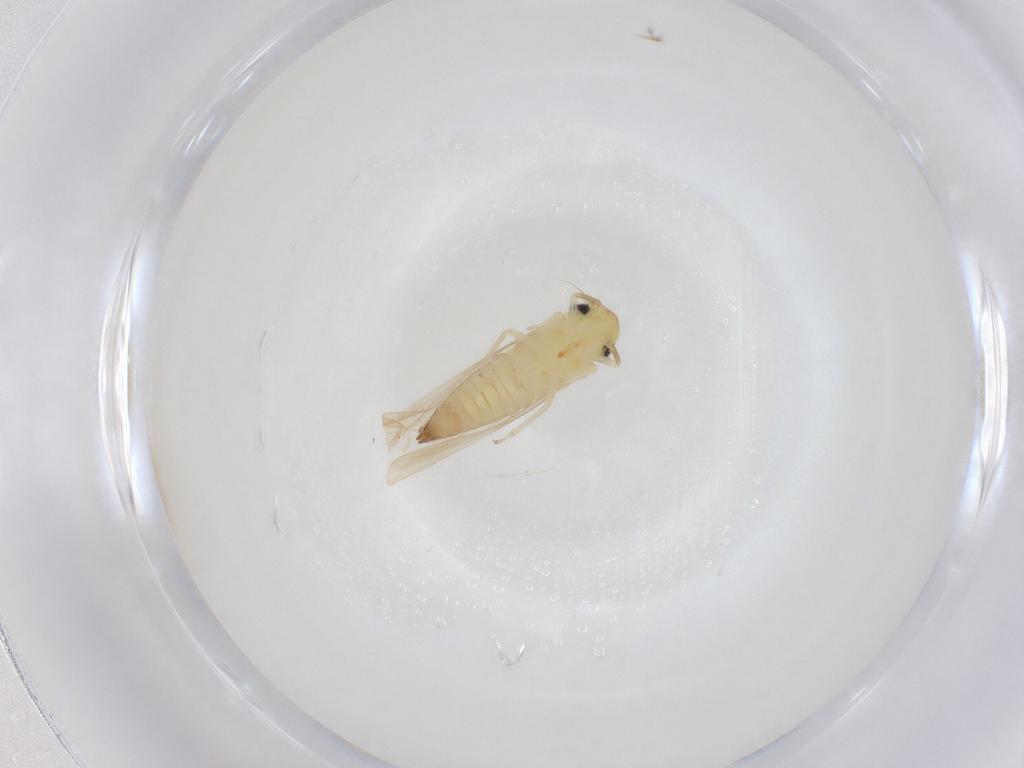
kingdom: Animalia
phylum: Arthropoda
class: Insecta
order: Hemiptera
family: Cicadellidae
